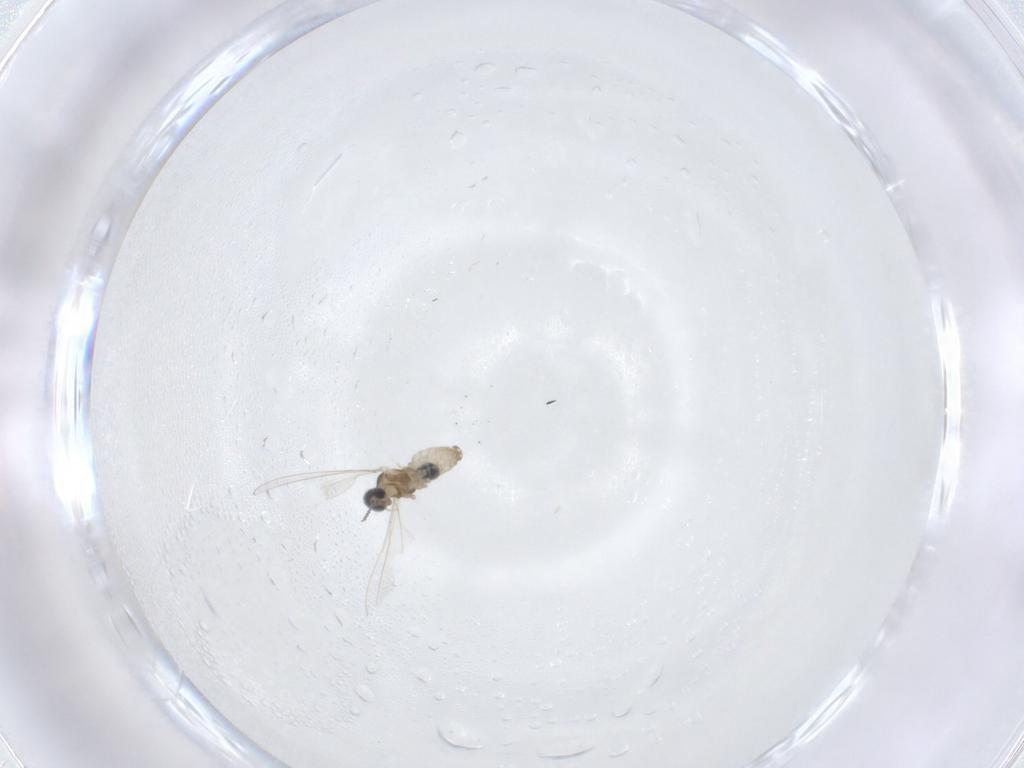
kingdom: Animalia
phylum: Arthropoda
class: Insecta
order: Diptera
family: Cecidomyiidae
